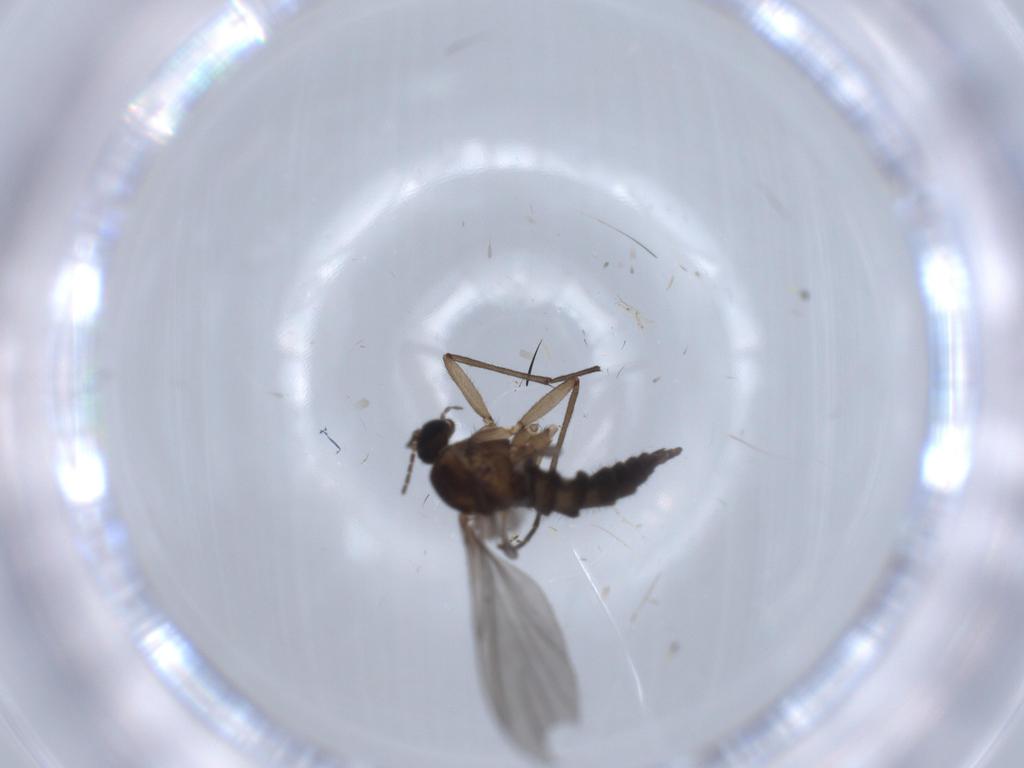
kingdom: Animalia
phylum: Arthropoda
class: Insecta
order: Diptera
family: Sciaridae
